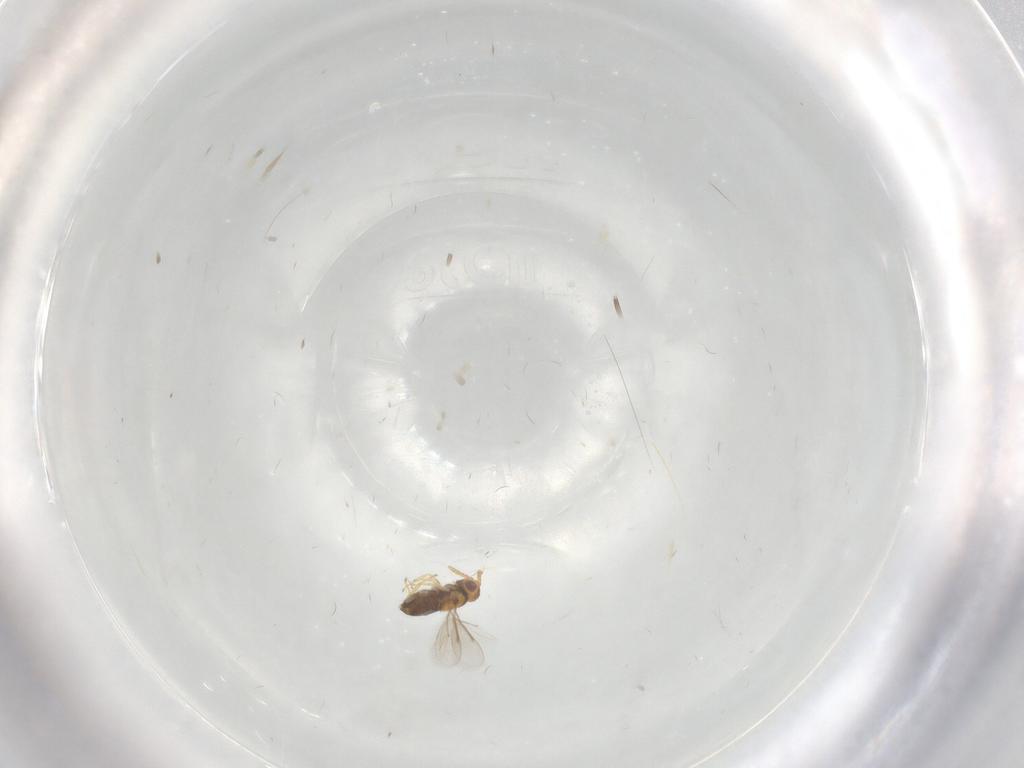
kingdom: Animalia
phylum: Arthropoda
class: Insecta
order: Hymenoptera
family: Aphelinidae
